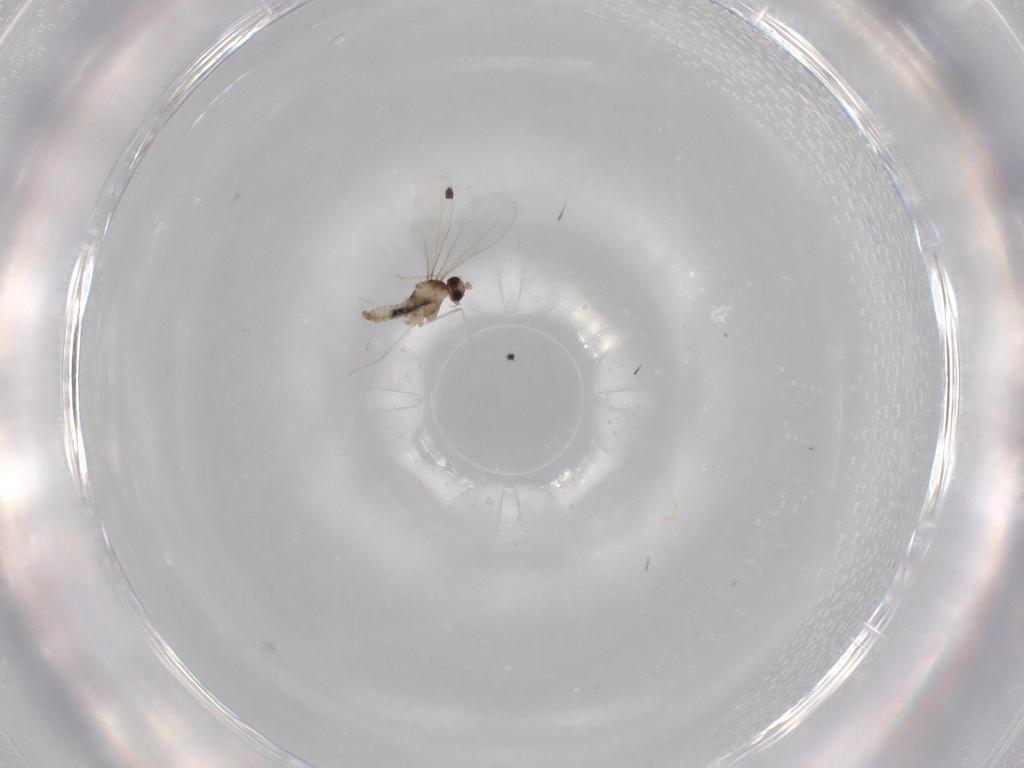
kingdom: Animalia
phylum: Arthropoda
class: Insecta
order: Diptera
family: Cecidomyiidae
